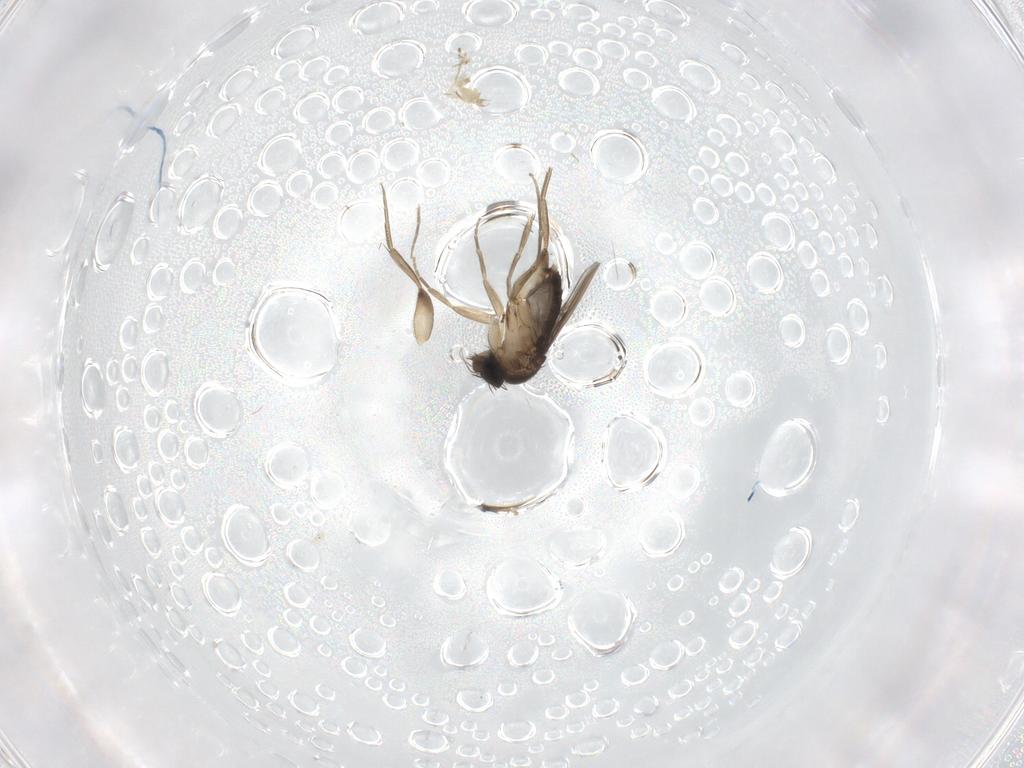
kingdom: Animalia
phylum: Arthropoda
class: Insecta
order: Diptera
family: Phoridae
